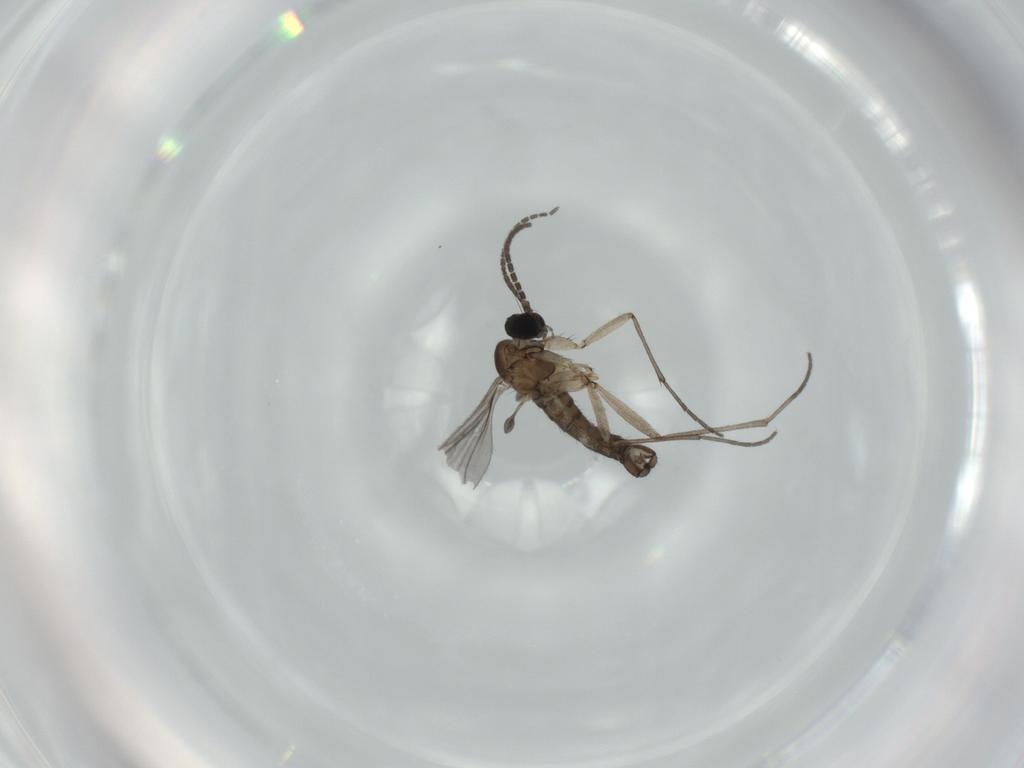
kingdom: Animalia
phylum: Arthropoda
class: Insecta
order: Diptera
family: Sciaridae
